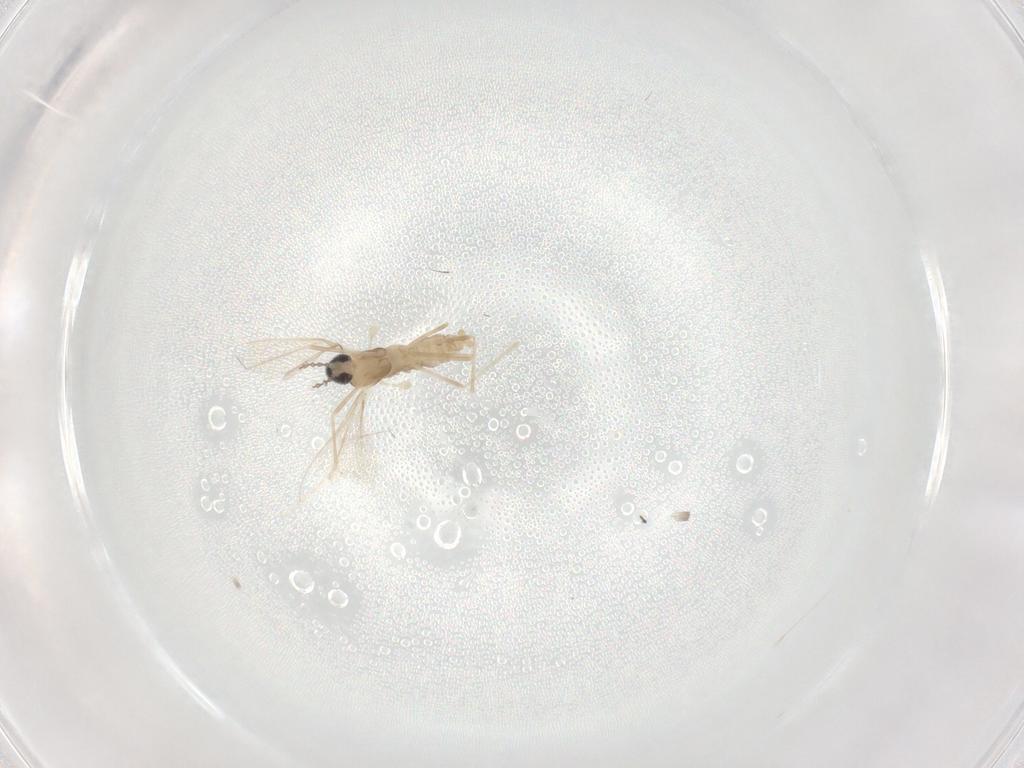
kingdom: Animalia
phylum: Arthropoda
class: Insecta
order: Diptera
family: Cecidomyiidae
